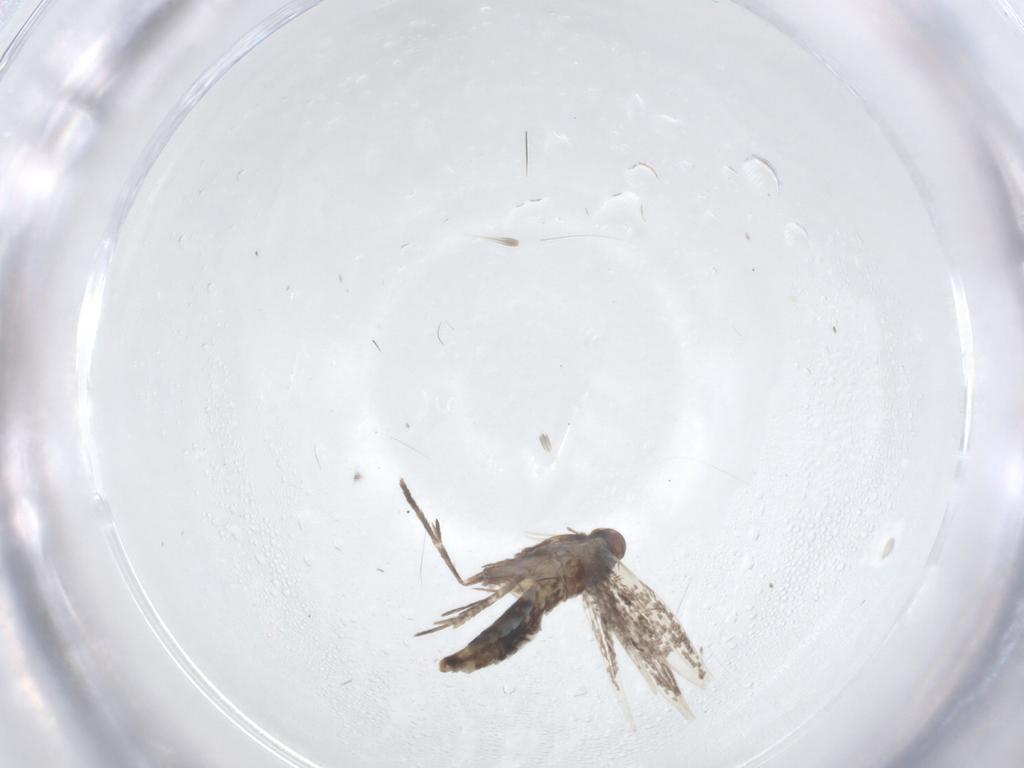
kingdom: Animalia
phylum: Arthropoda
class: Insecta
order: Lepidoptera
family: Gracillariidae
